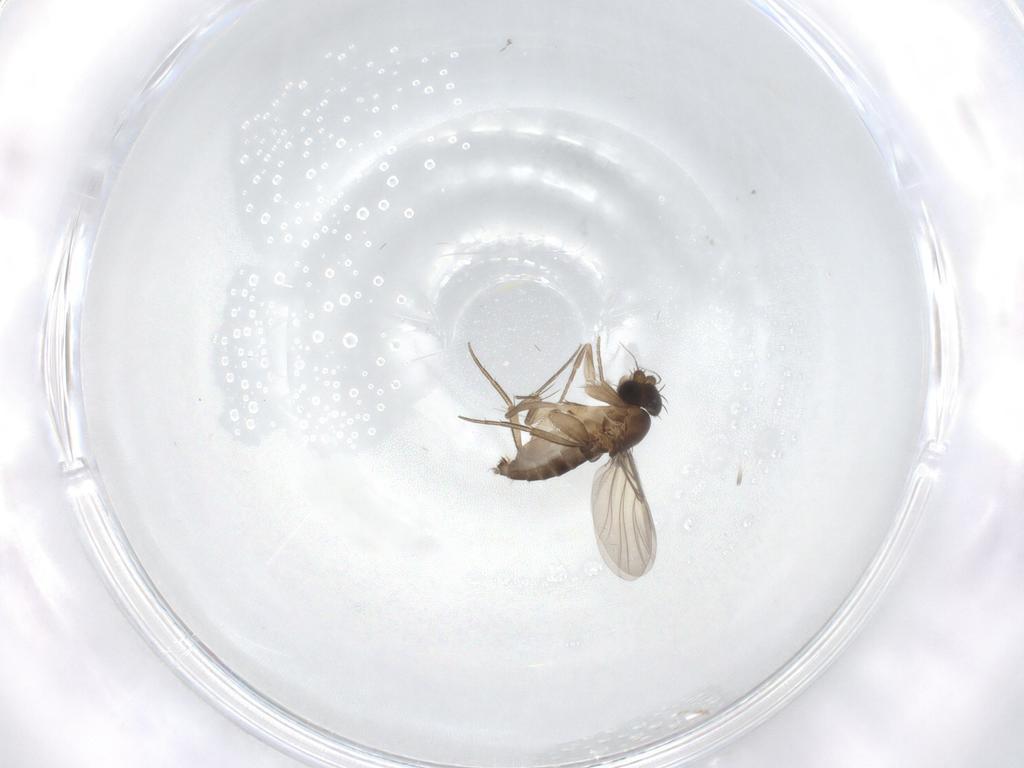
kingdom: Animalia
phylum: Arthropoda
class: Insecta
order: Diptera
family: Phoridae
